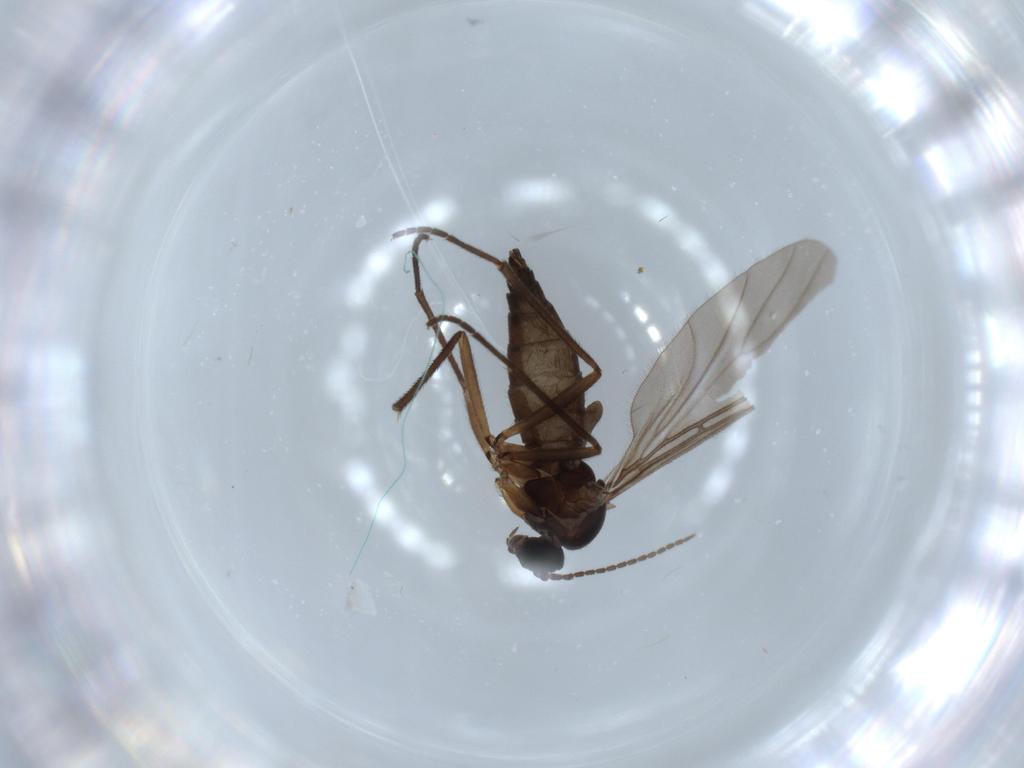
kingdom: Animalia
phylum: Arthropoda
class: Insecta
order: Diptera
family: Sciaridae
